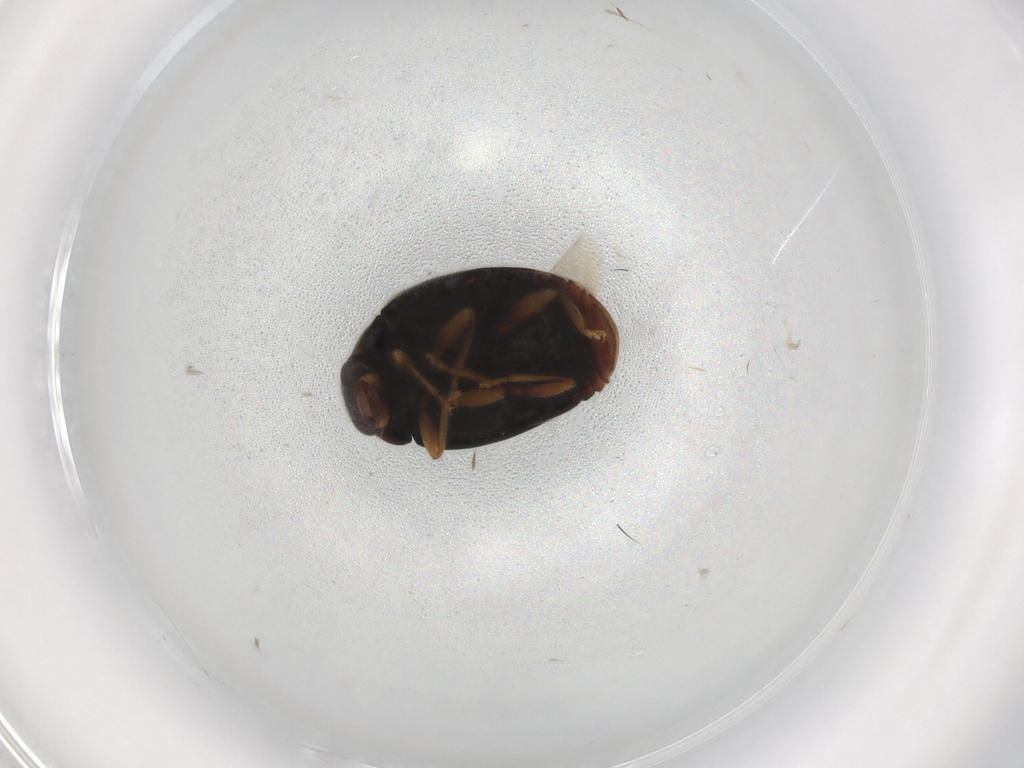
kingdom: Animalia
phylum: Arthropoda
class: Insecta
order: Coleoptera
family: Coccinellidae
